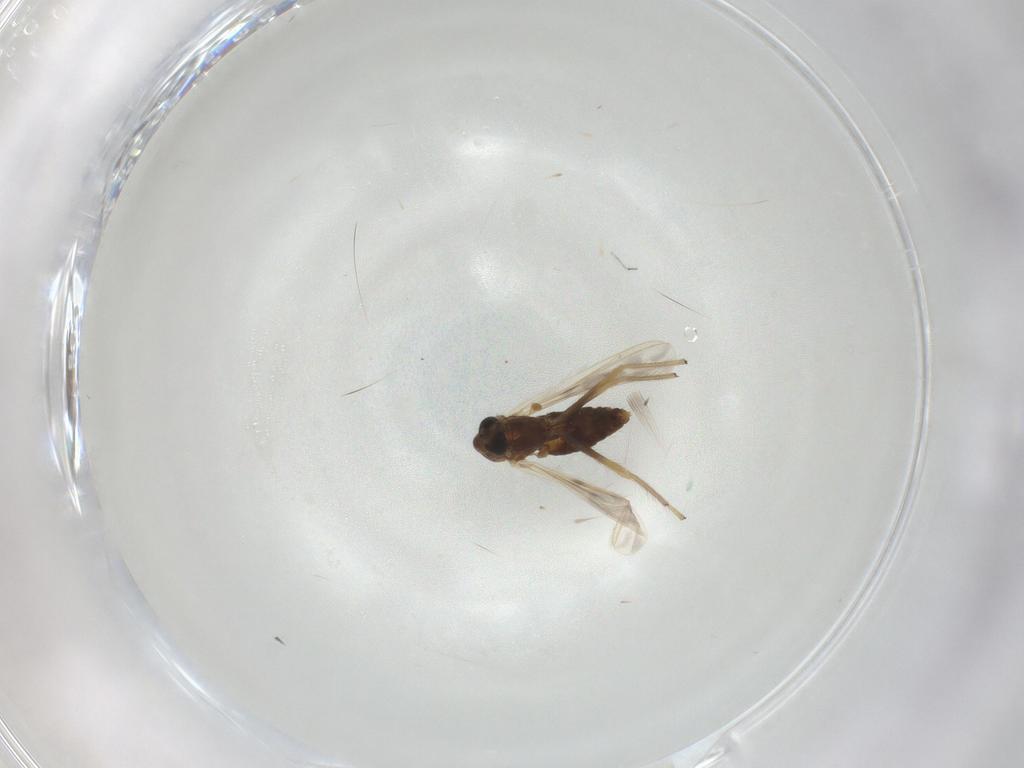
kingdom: Animalia
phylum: Arthropoda
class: Insecta
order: Diptera
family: Chironomidae
